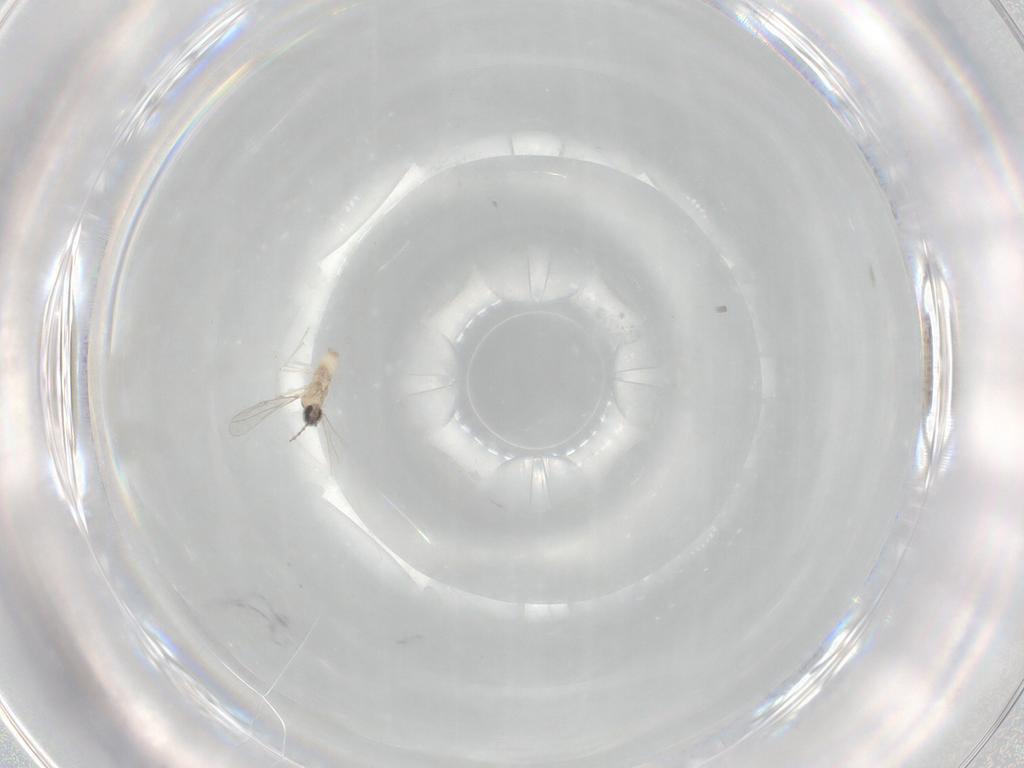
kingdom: Animalia
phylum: Arthropoda
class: Insecta
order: Diptera
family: Cecidomyiidae
